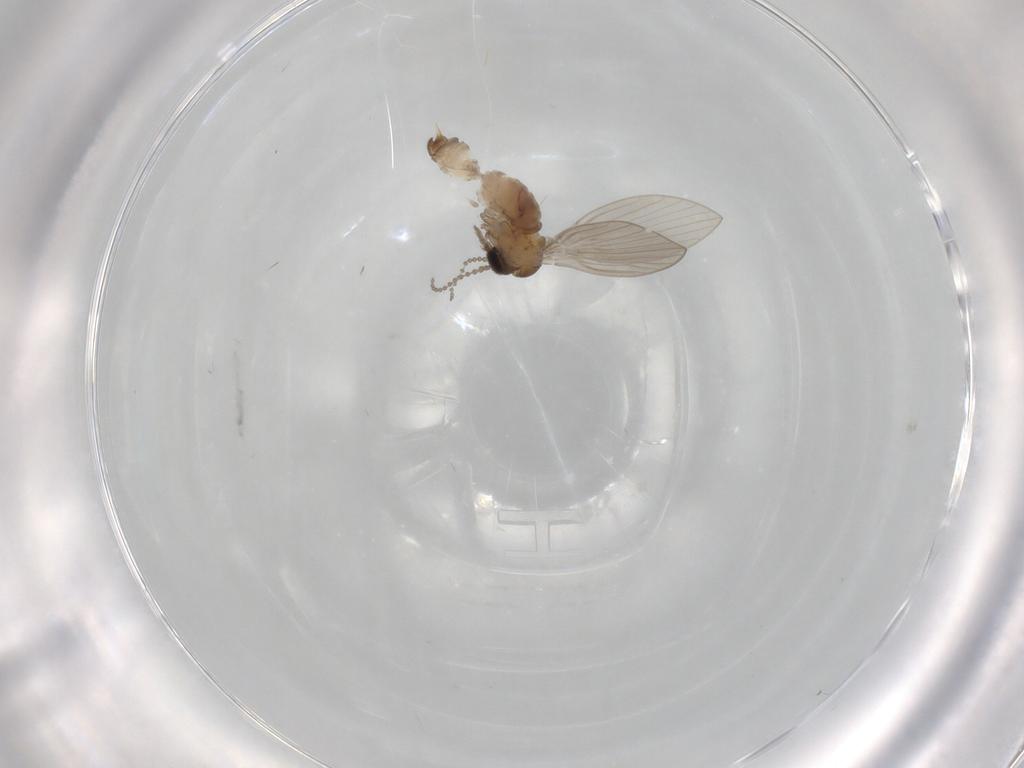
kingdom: Animalia
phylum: Arthropoda
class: Insecta
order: Diptera
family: Psychodidae
